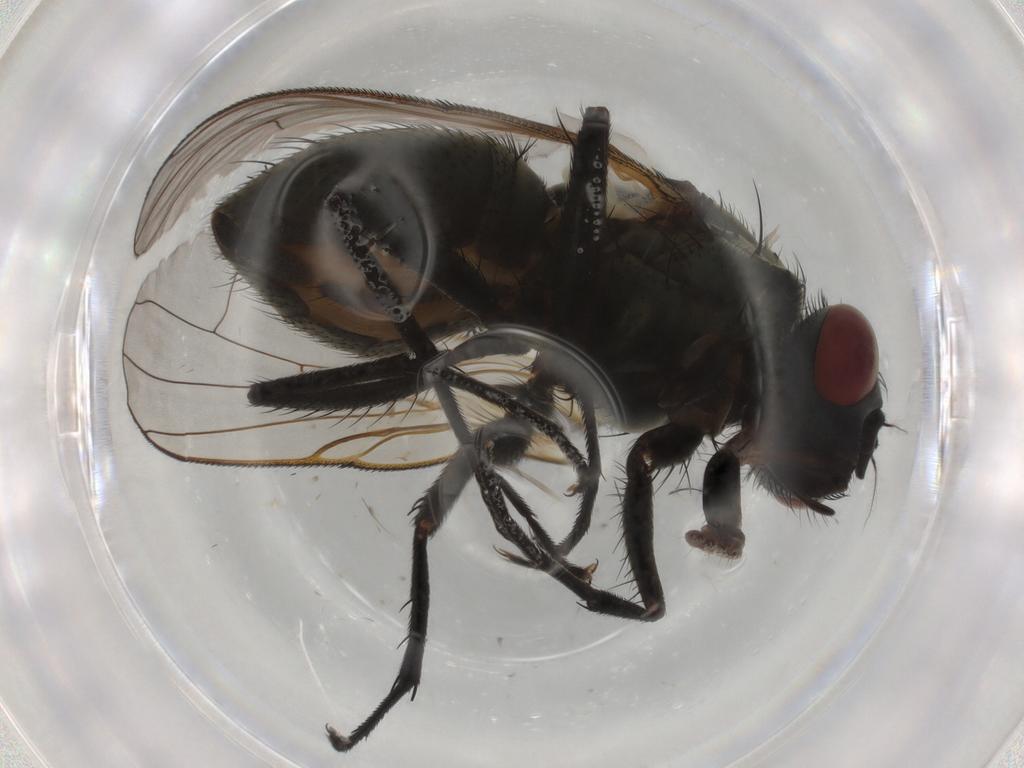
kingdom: Animalia
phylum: Arthropoda
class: Insecta
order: Diptera
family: Muscidae
